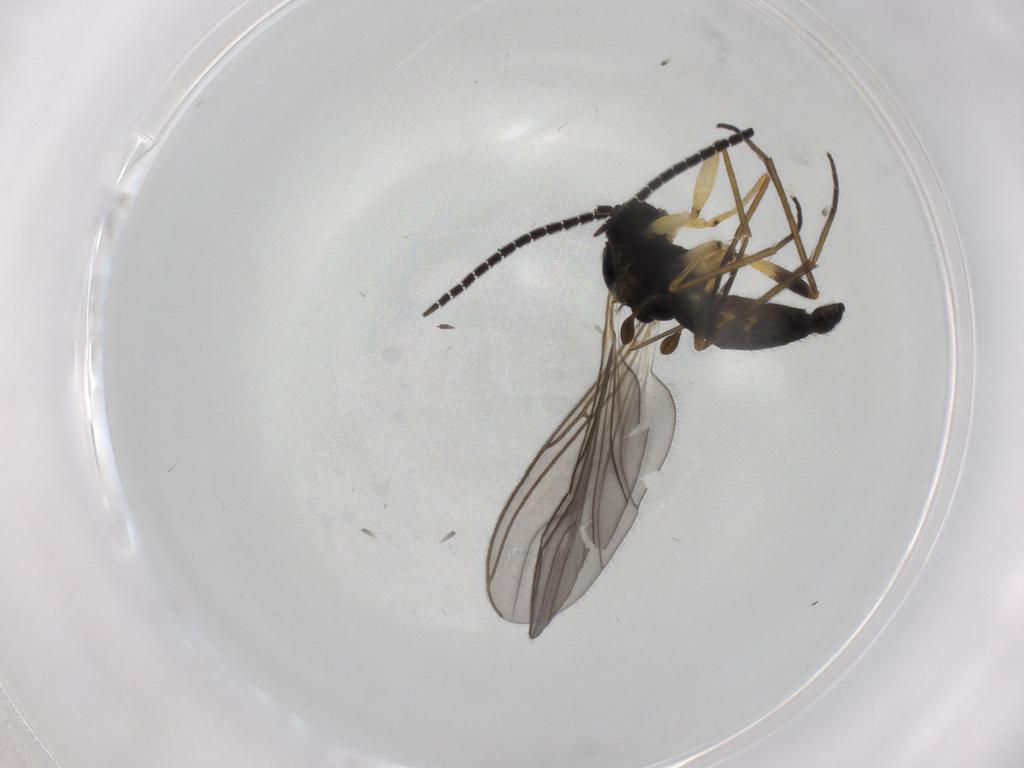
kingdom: Animalia
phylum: Arthropoda
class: Insecta
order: Diptera
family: Sciaridae
